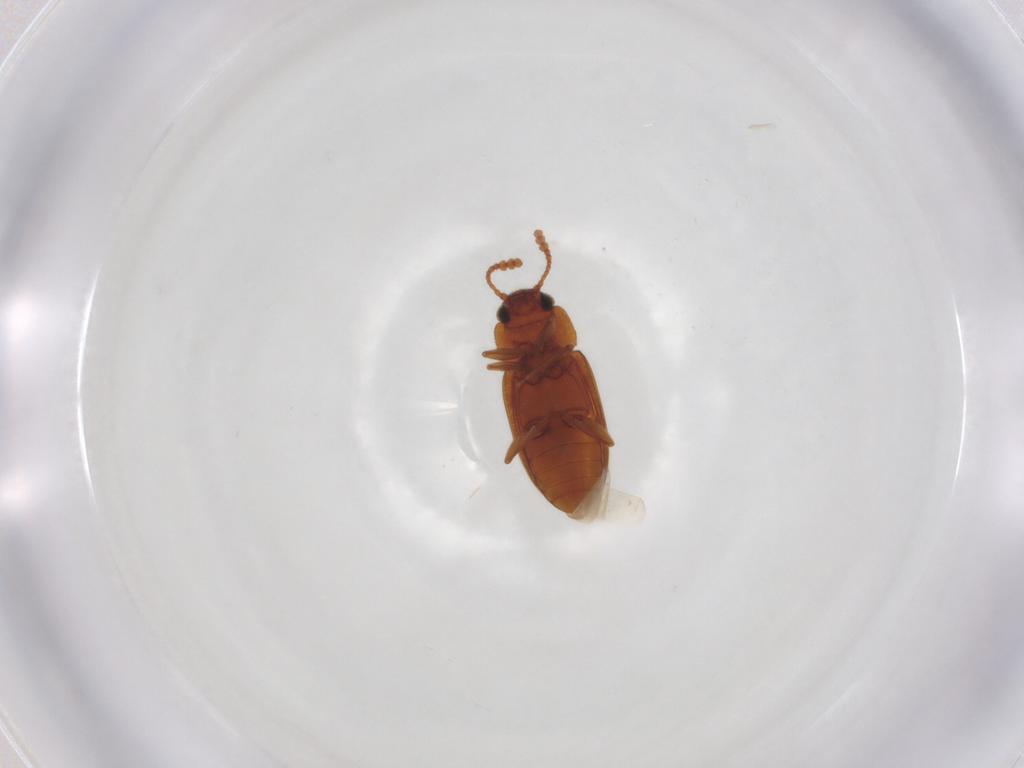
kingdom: Animalia
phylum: Arthropoda
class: Insecta
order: Coleoptera
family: Erotylidae
